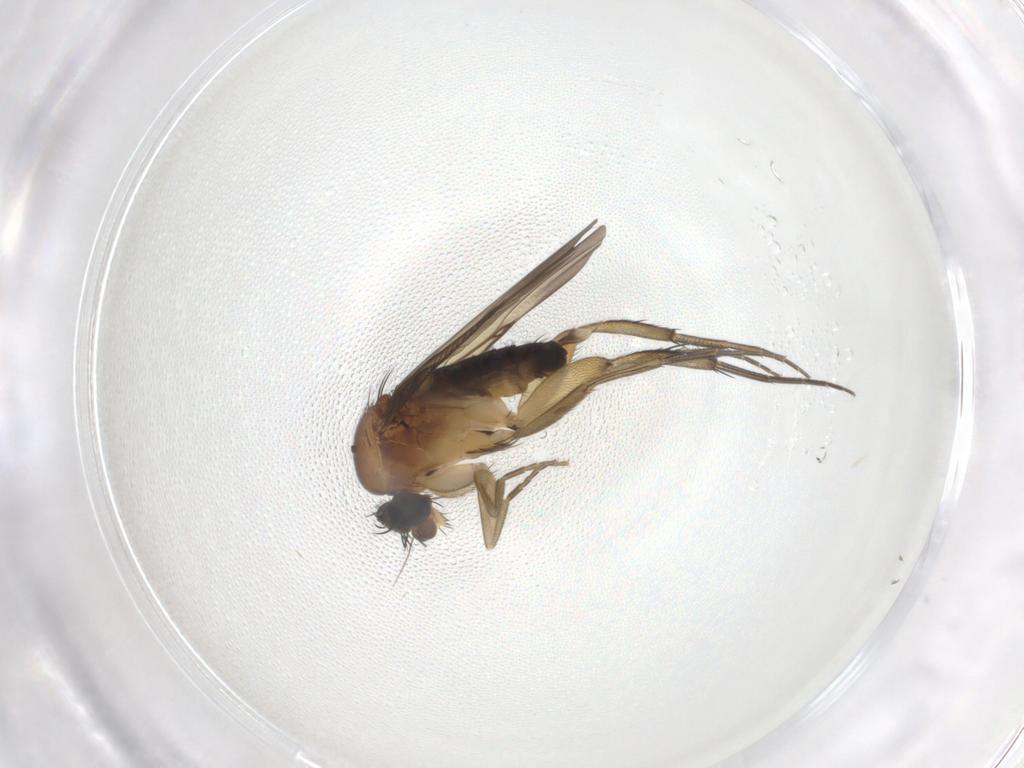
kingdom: Animalia
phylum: Arthropoda
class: Insecta
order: Diptera
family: Phoridae
